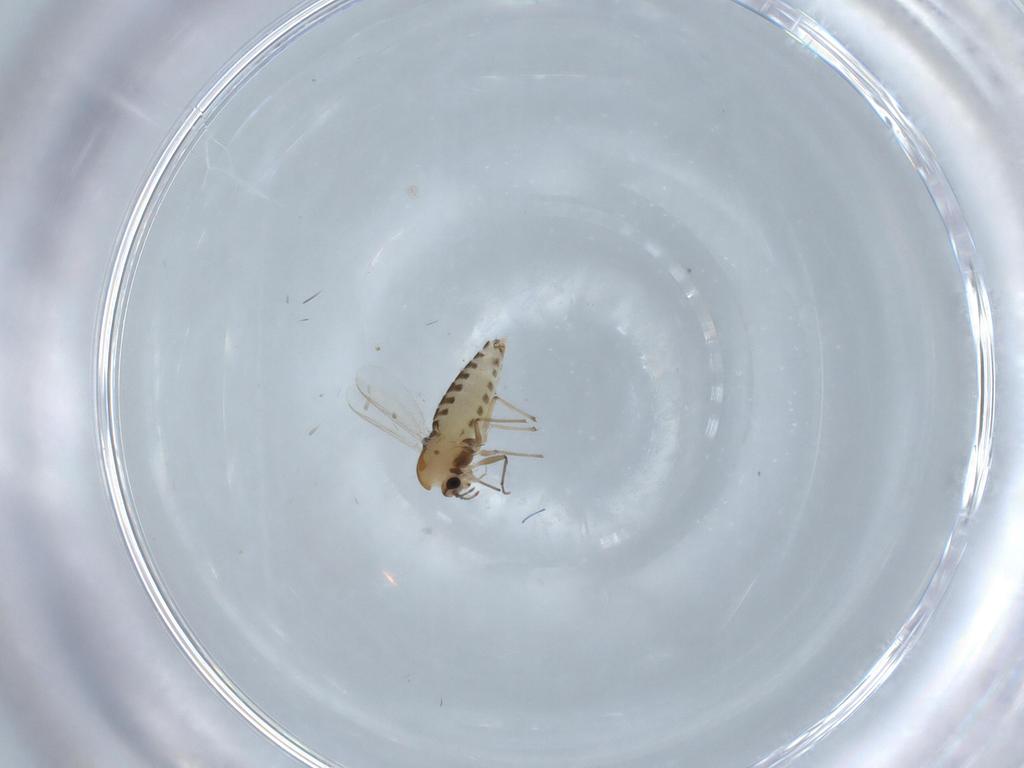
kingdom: Animalia
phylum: Arthropoda
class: Insecta
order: Diptera
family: Chironomidae
